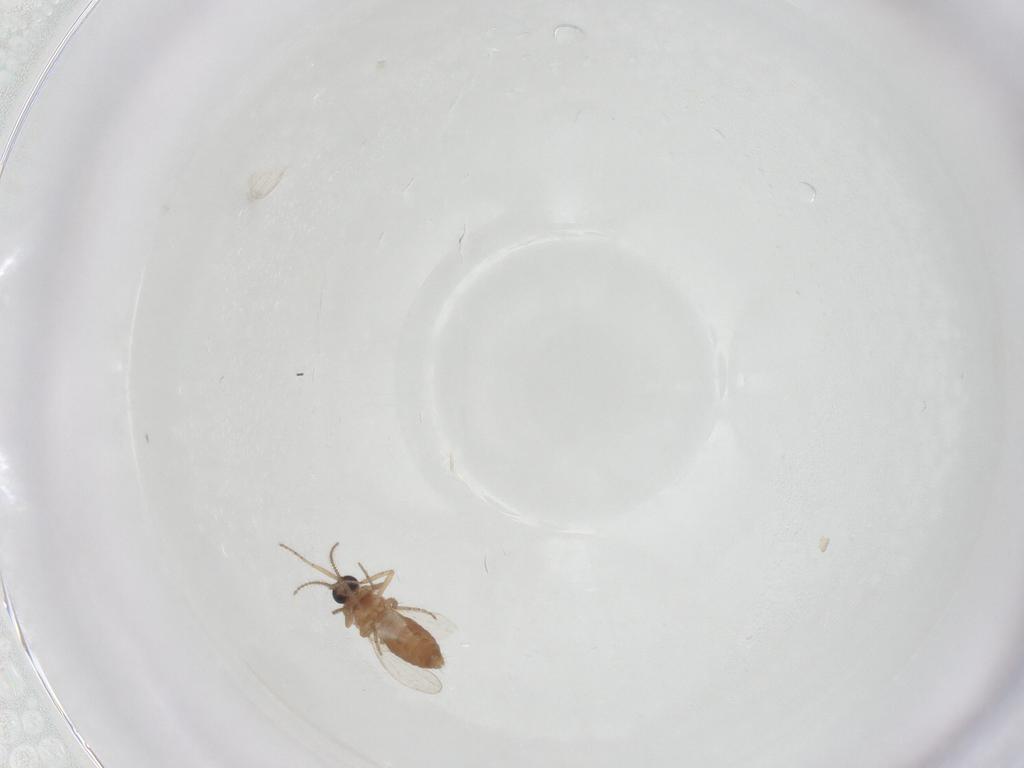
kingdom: Animalia
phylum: Arthropoda
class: Insecta
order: Diptera
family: Ceratopogonidae
